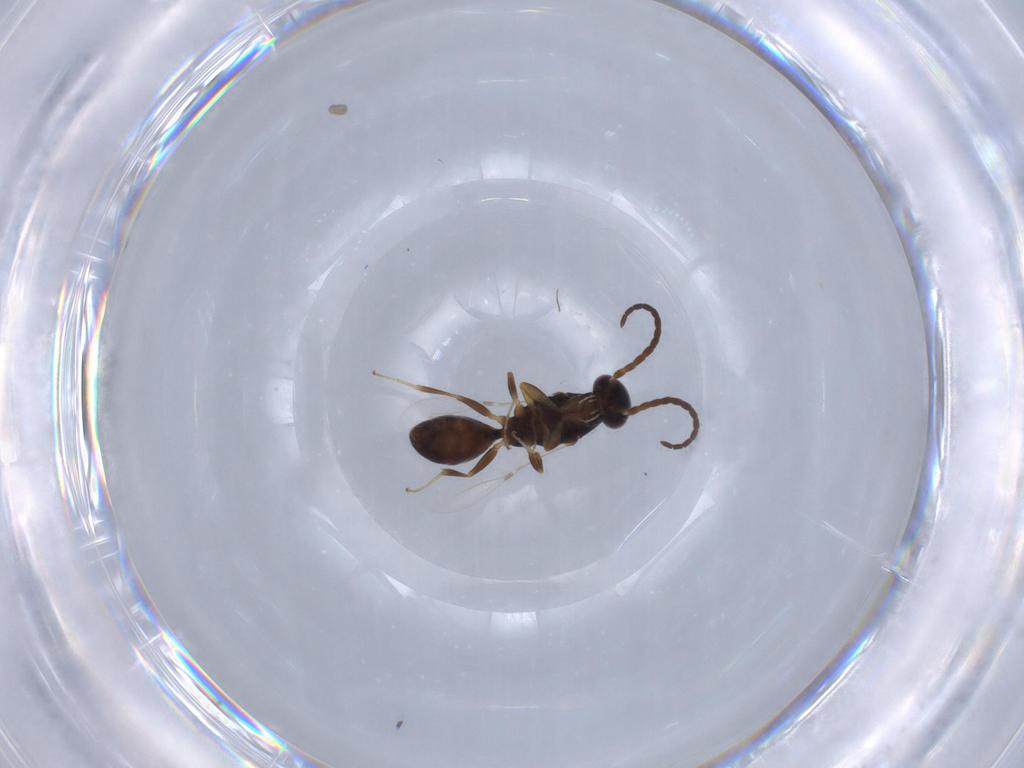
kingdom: Animalia
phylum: Arthropoda
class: Insecta
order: Hymenoptera
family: Bethylidae
